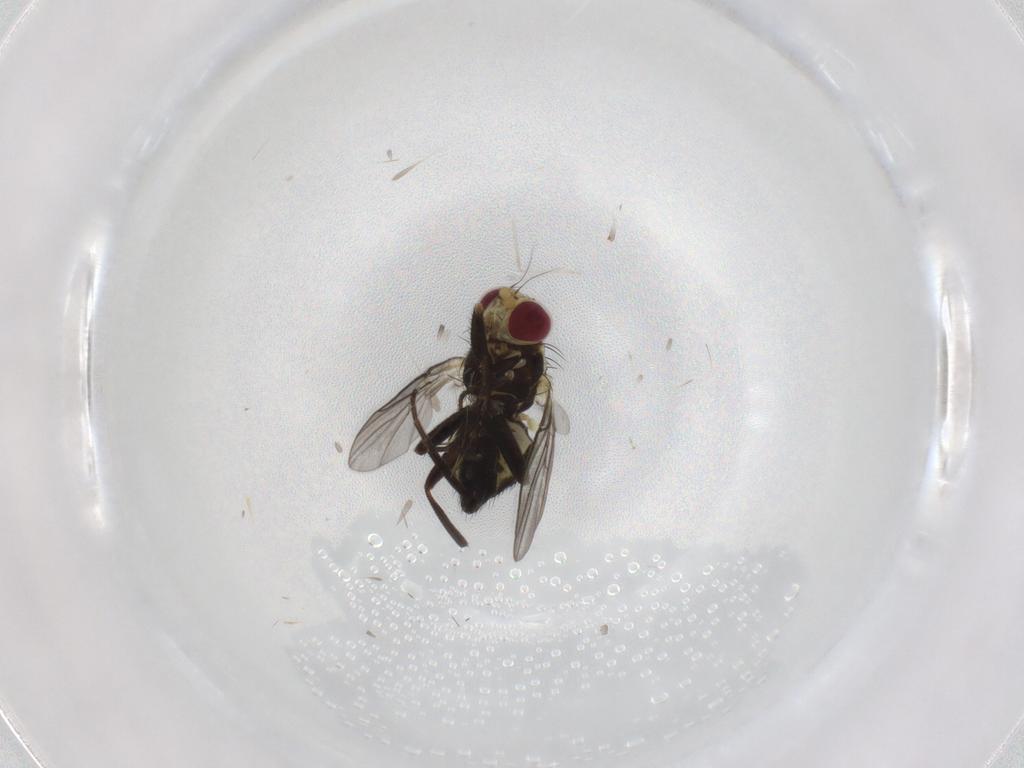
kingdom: Animalia
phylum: Arthropoda
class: Insecta
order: Diptera
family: Agromyzidae
